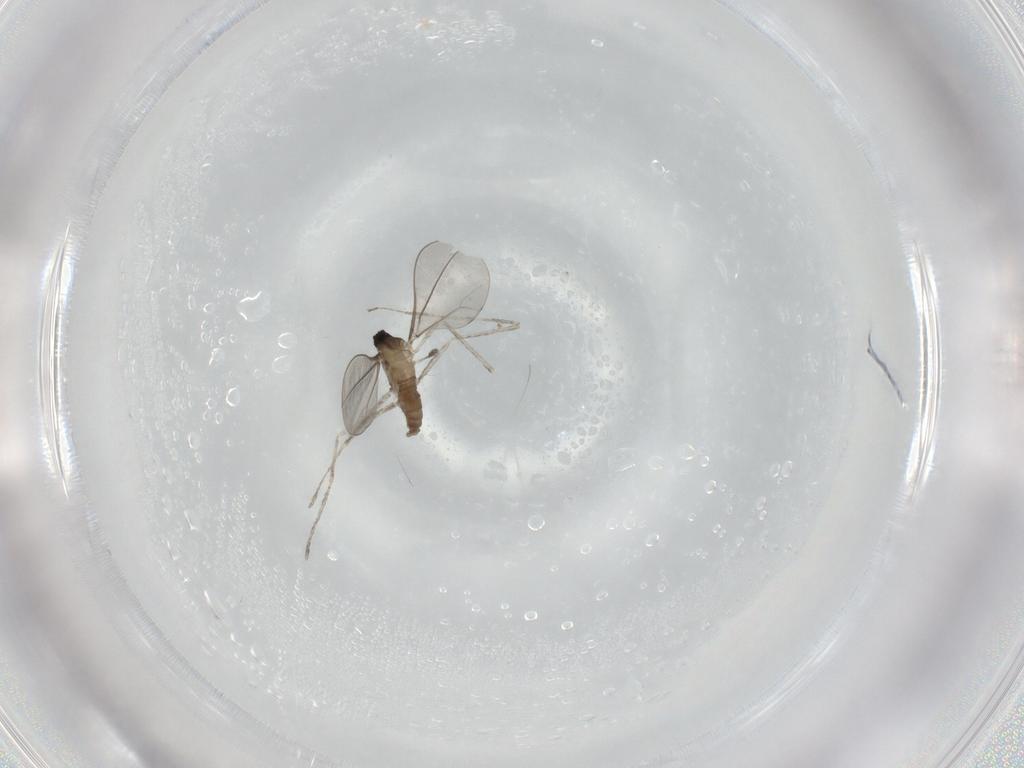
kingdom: Animalia
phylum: Arthropoda
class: Insecta
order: Diptera
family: Cecidomyiidae
